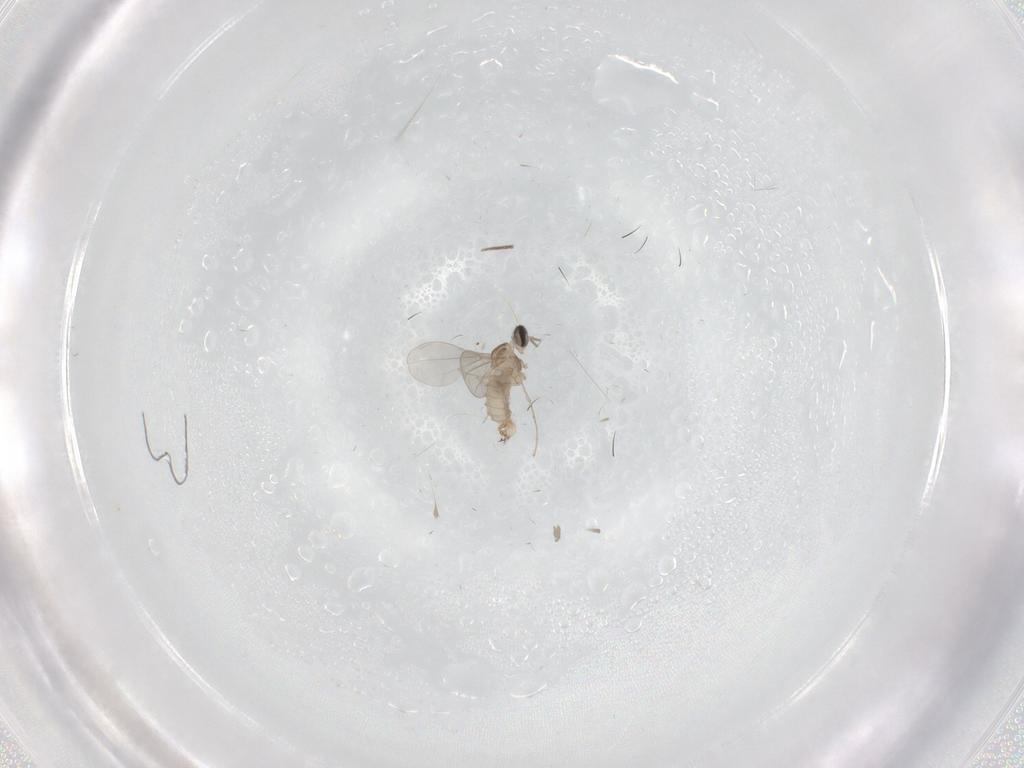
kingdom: Animalia
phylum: Arthropoda
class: Insecta
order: Diptera
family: Cecidomyiidae
